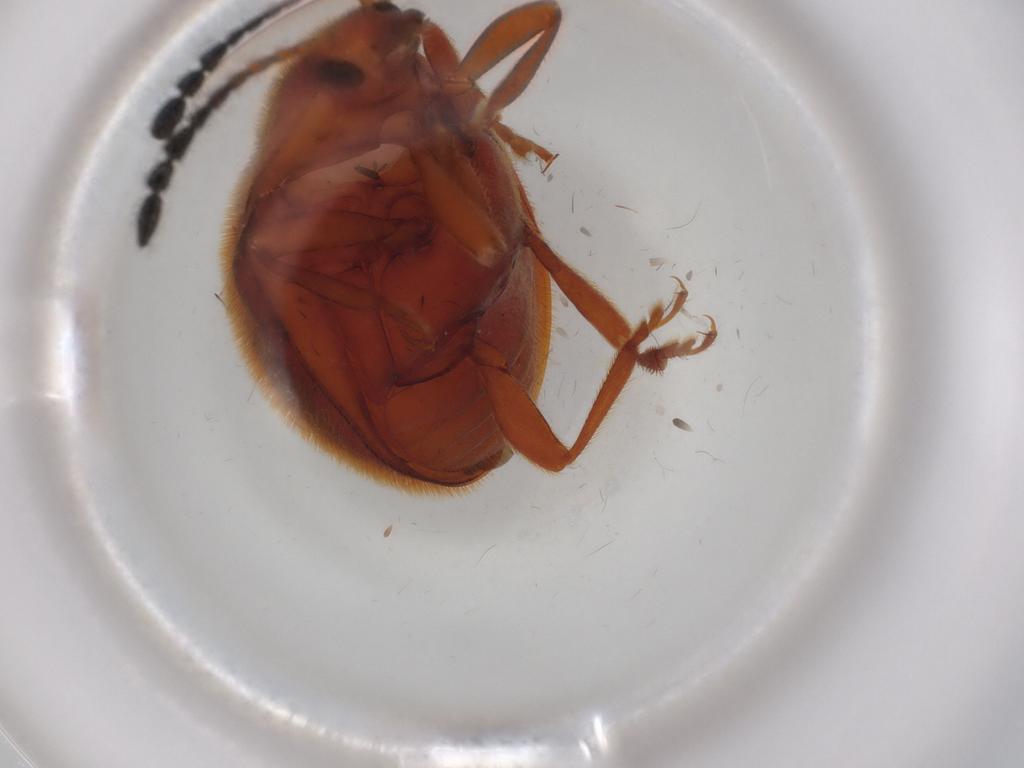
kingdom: Animalia
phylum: Arthropoda
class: Insecta
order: Coleoptera
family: Endomychidae
